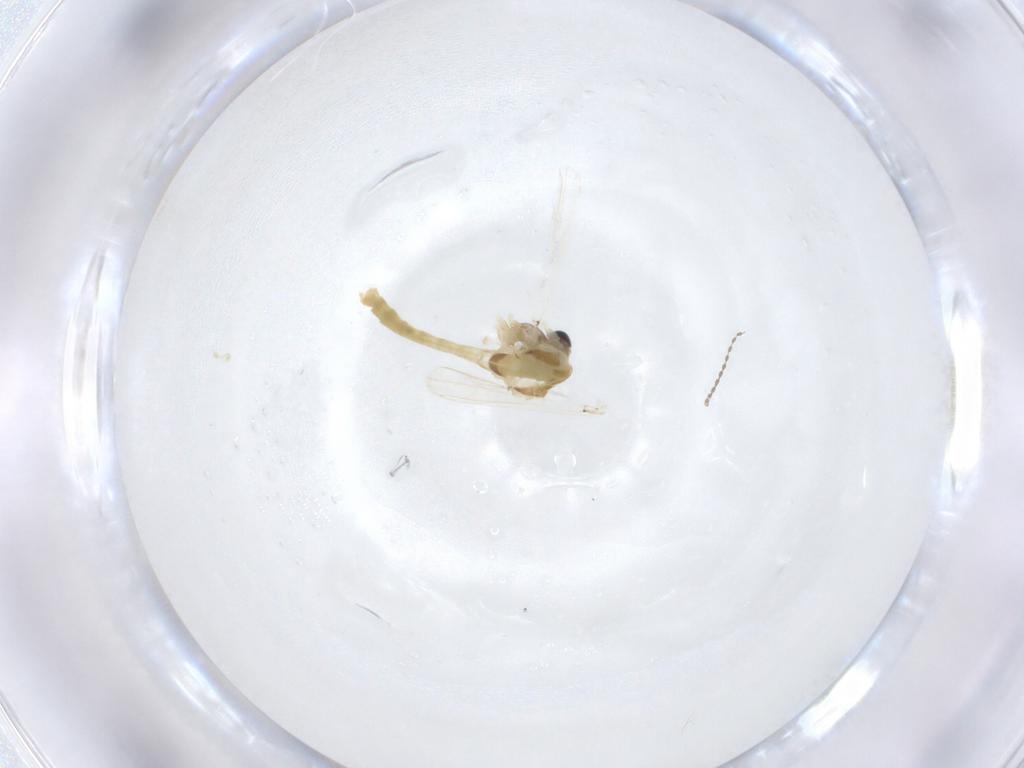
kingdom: Animalia
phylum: Arthropoda
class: Insecta
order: Diptera
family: Chironomidae
